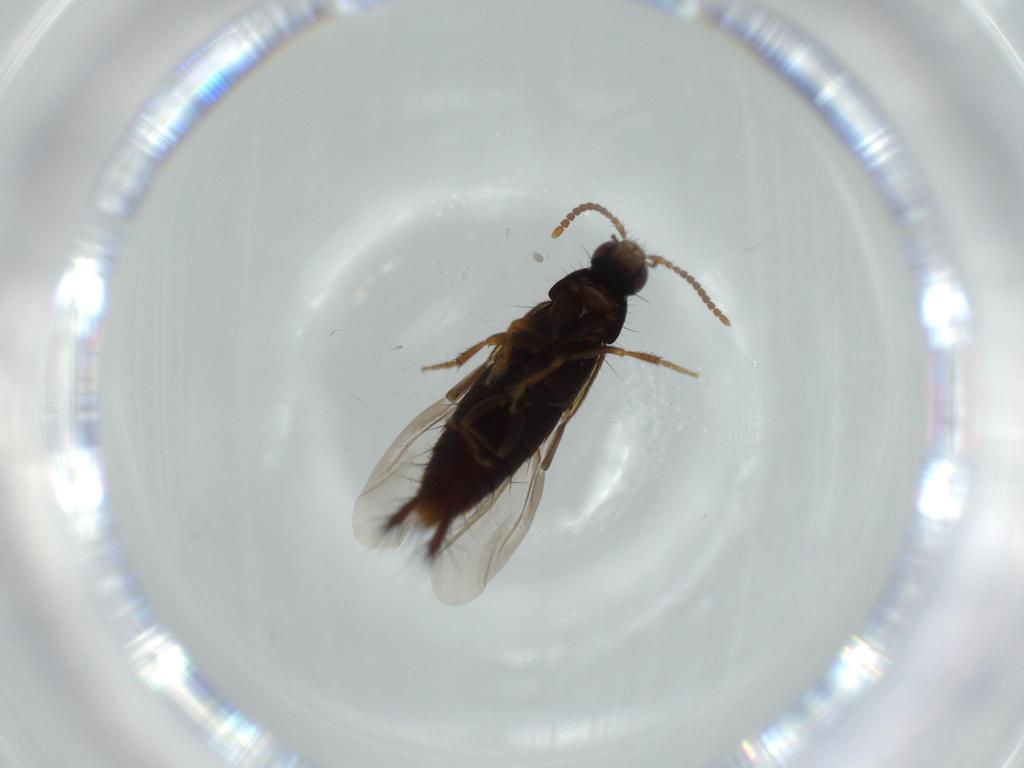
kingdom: Animalia
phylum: Arthropoda
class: Insecta
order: Coleoptera
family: Staphylinidae
